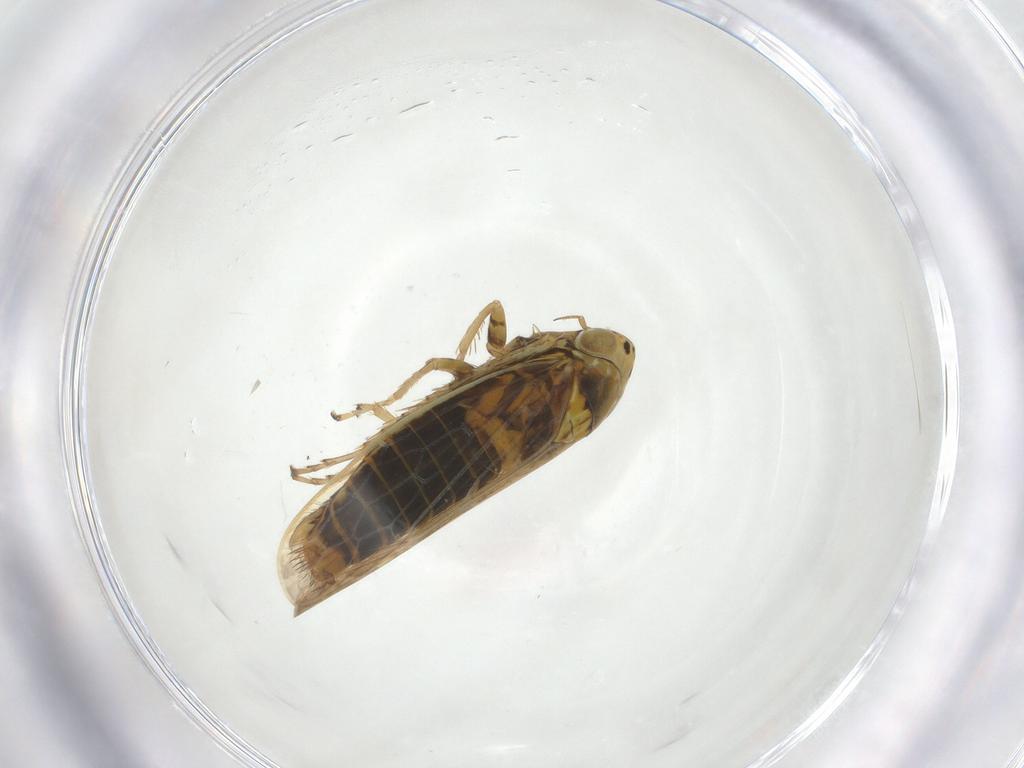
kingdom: Animalia
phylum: Arthropoda
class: Insecta
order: Hemiptera
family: Cicadellidae
